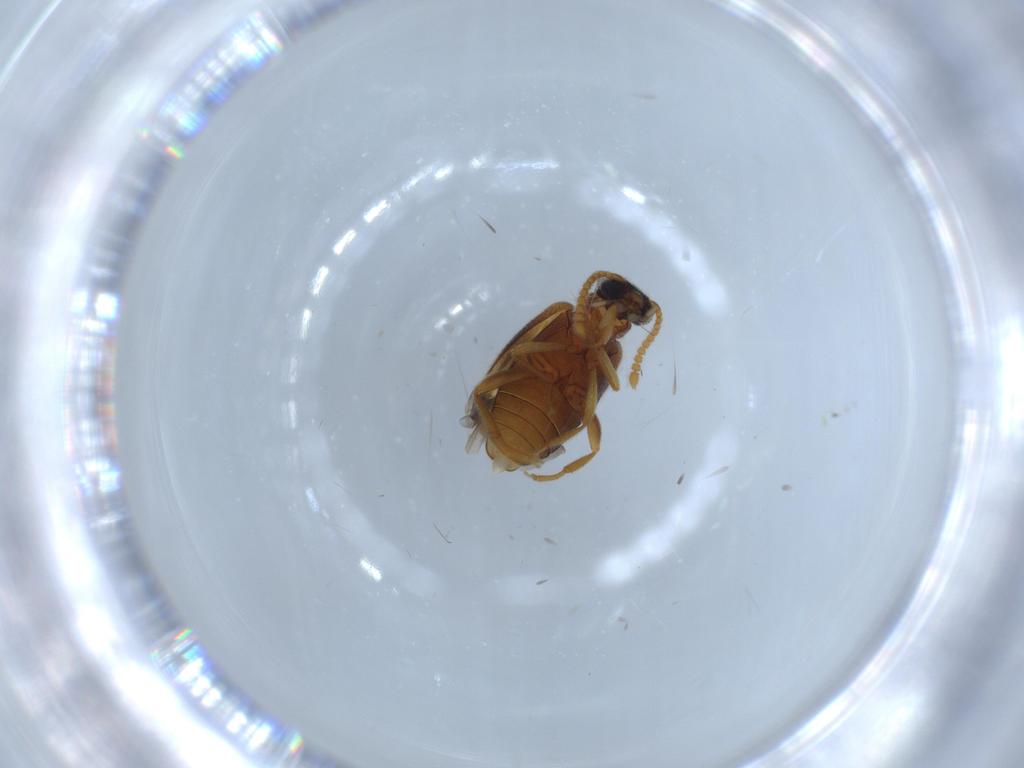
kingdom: Animalia
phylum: Arthropoda
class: Insecta
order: Coleoptera
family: Aderidae
